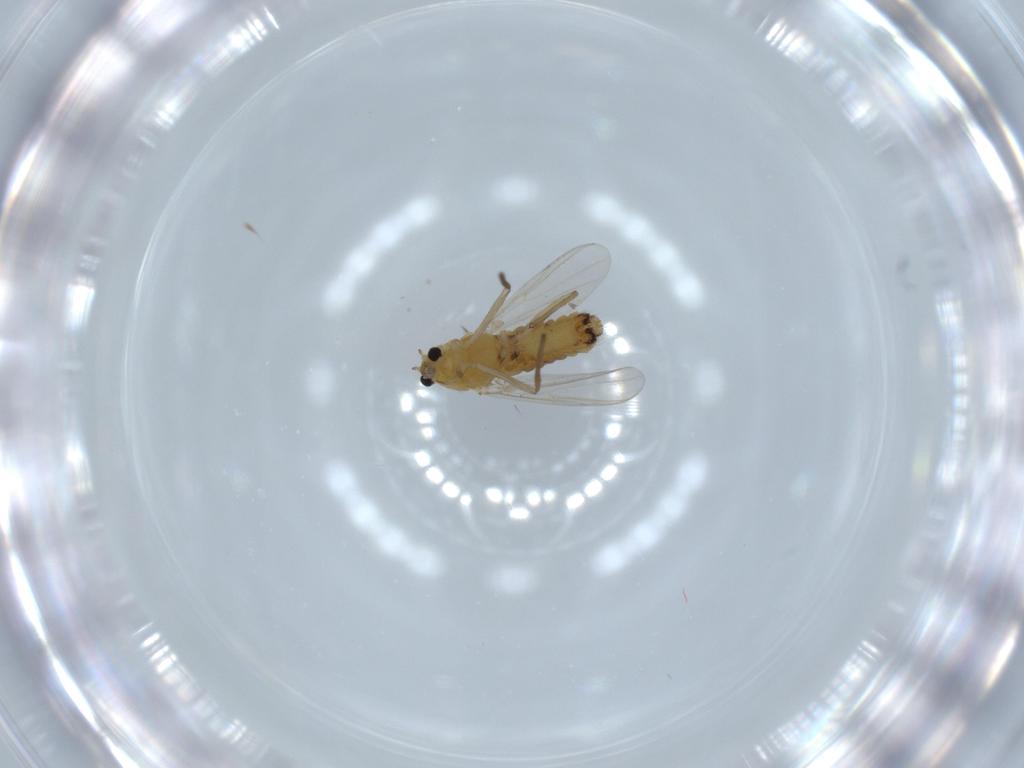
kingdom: Animalia
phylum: Arthropoda
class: Insecta
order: Diptera
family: Chironomidae
